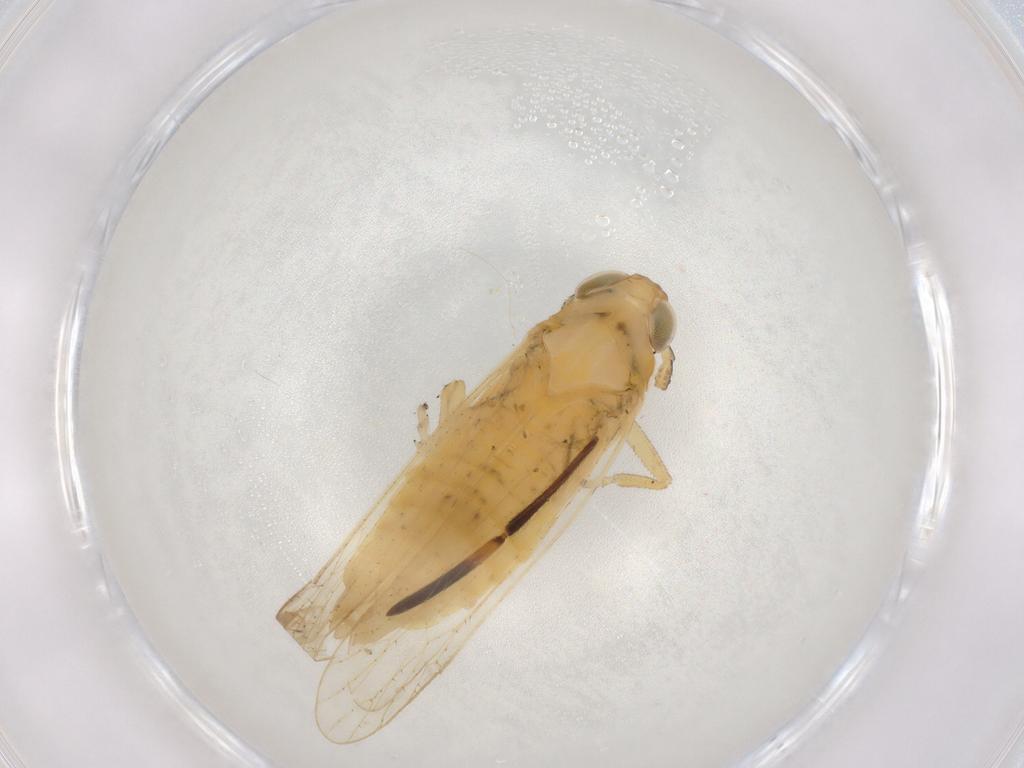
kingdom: Animalia
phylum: Arthropoda
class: Insecta
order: Hemiptera
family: Delphacidae
